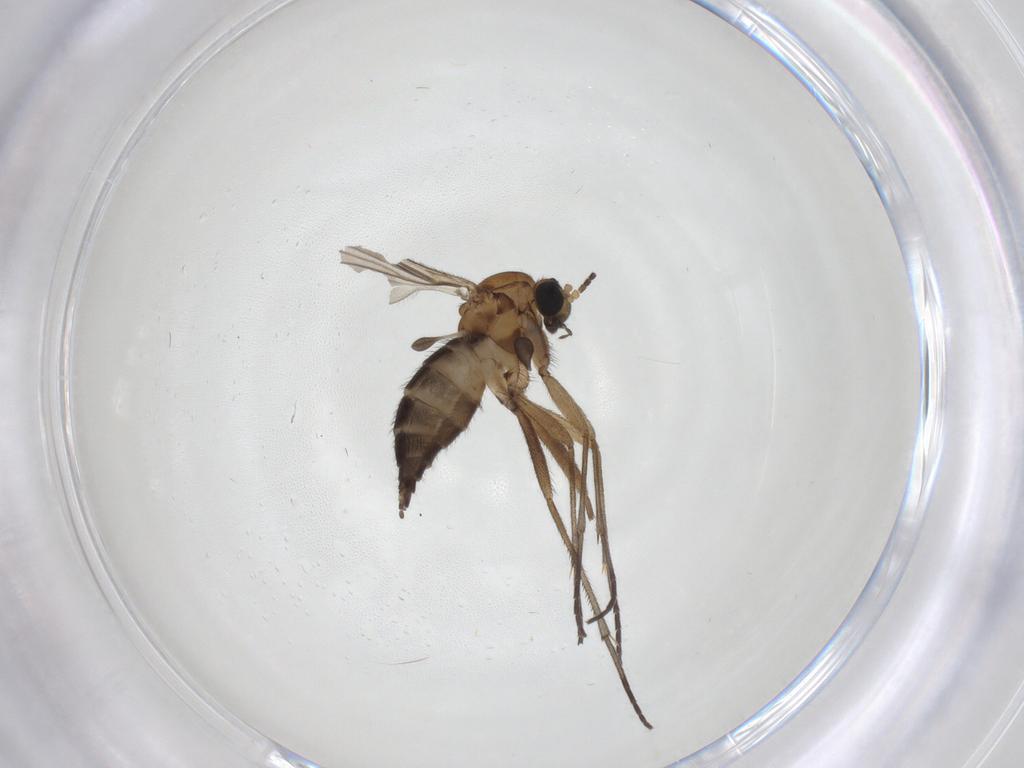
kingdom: Animalia
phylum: Arthropoda
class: Insecta
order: Diptera
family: Sciaridae
